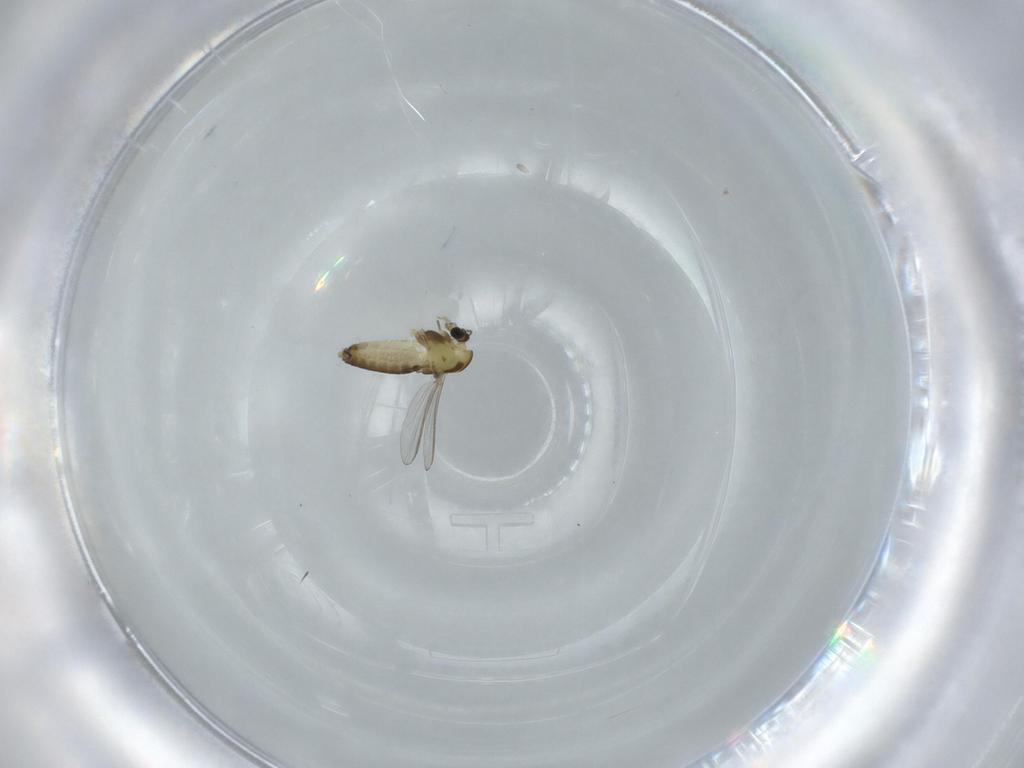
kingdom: Animalia
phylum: Arthropoda
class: Insecta
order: Diptera
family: Chironomidae
